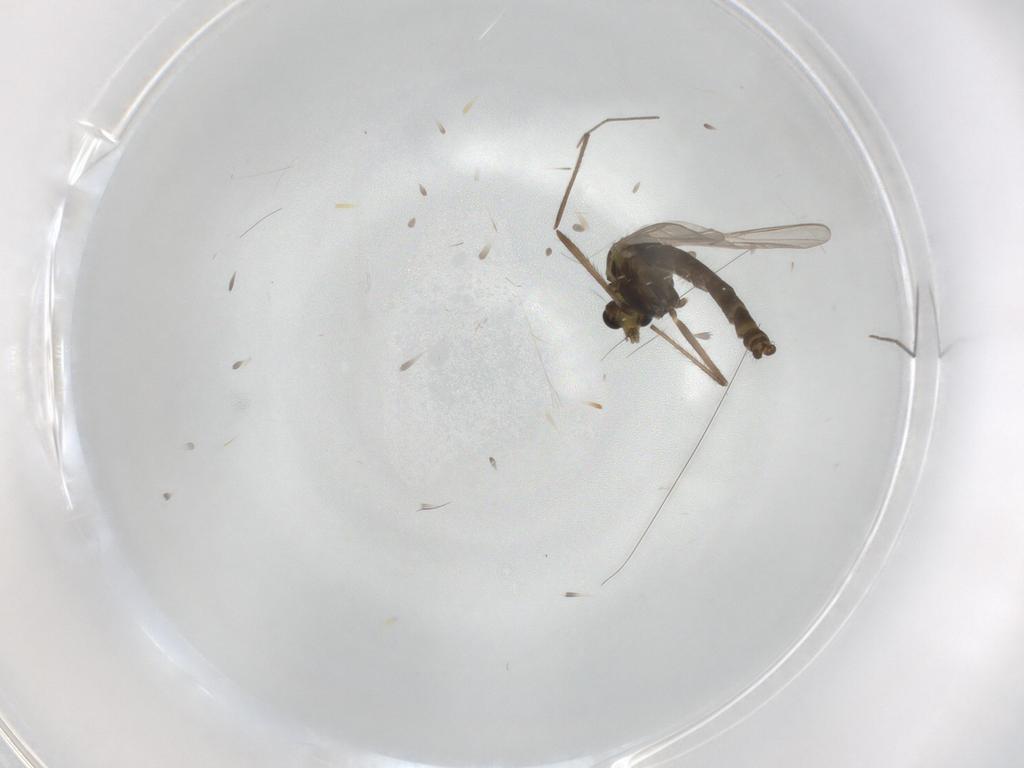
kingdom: Animalia
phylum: Arthropoda
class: Insecta
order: Diptera
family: Chironomidae
